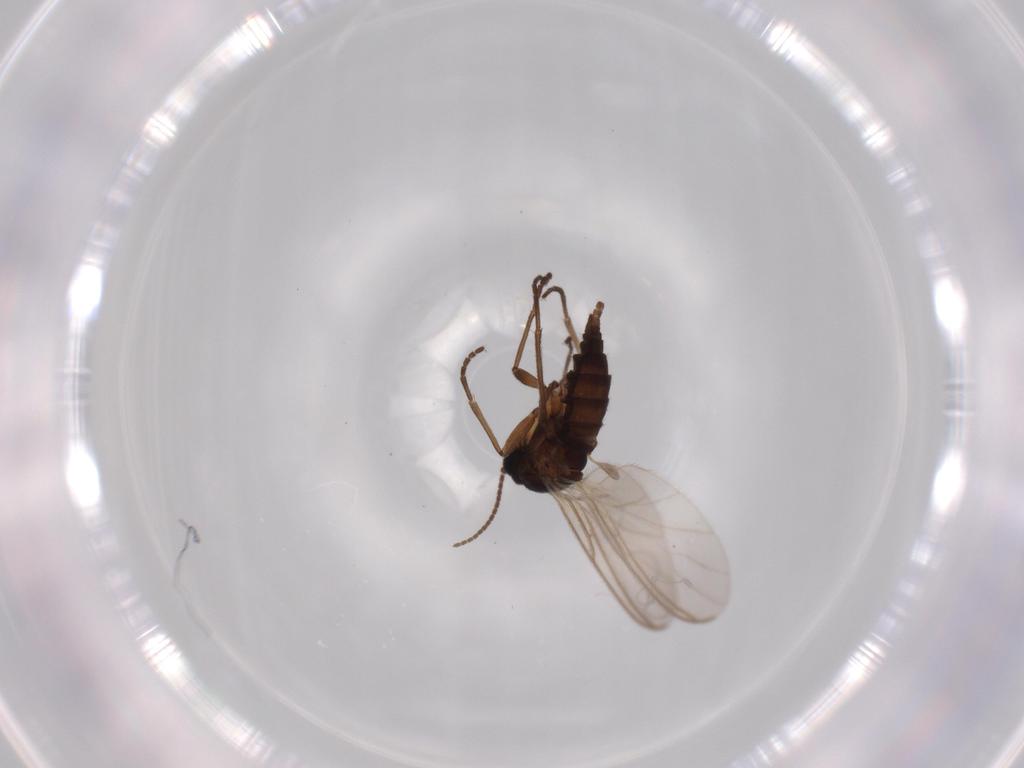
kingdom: Animalia
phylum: Arthropoda
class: Insecta
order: Diptera
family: Sciaridae
